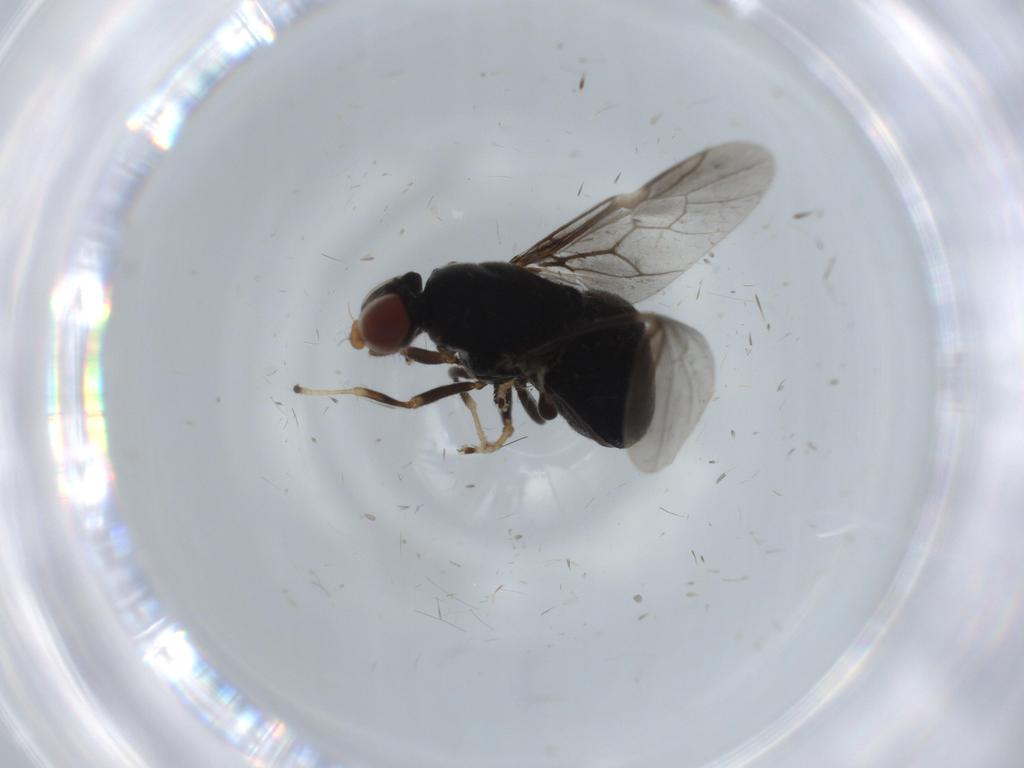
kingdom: Animalia
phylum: Arthropoda
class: Insecta
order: Diptera
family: Stratiomyidae
